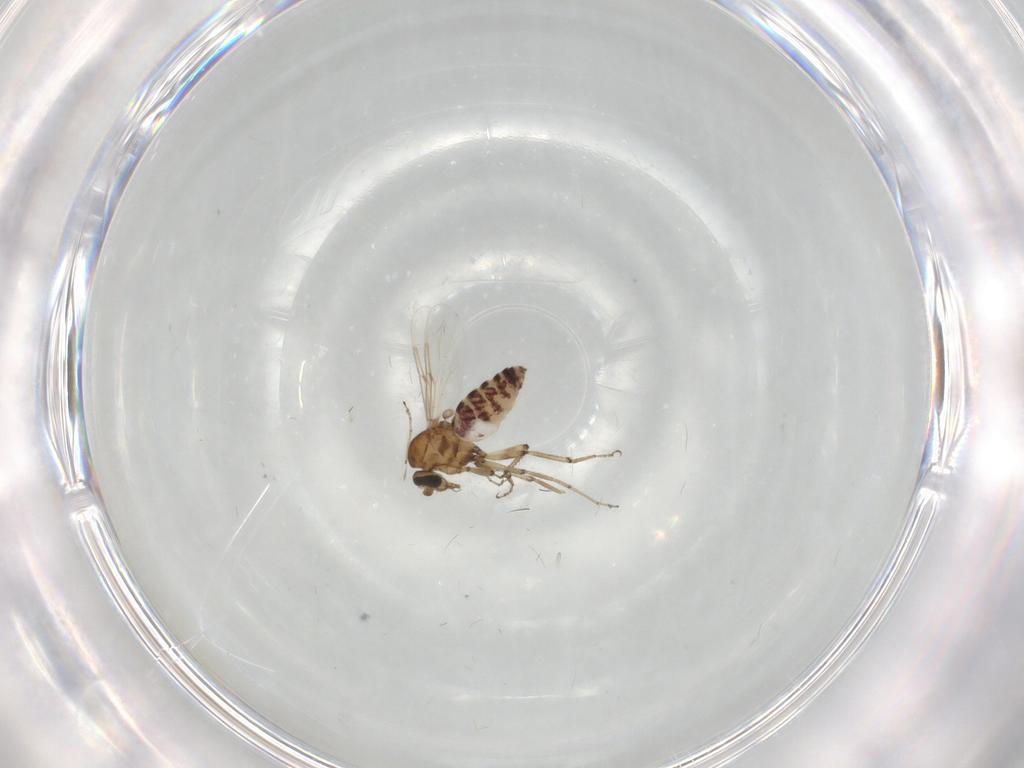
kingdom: Animalia
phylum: Arthropoda
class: Insecta
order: Diptera
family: Ceratopogonidae
